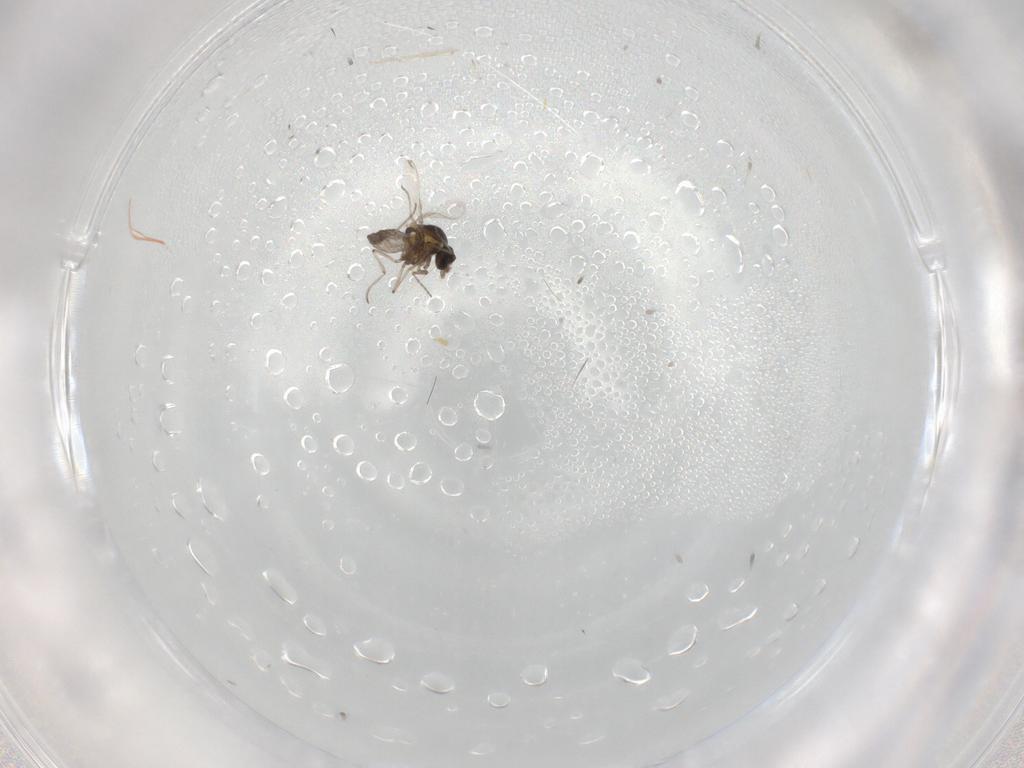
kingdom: Animalia
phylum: Arthropoda
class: Insecta
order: Diptera
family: Ceratopogonidae
